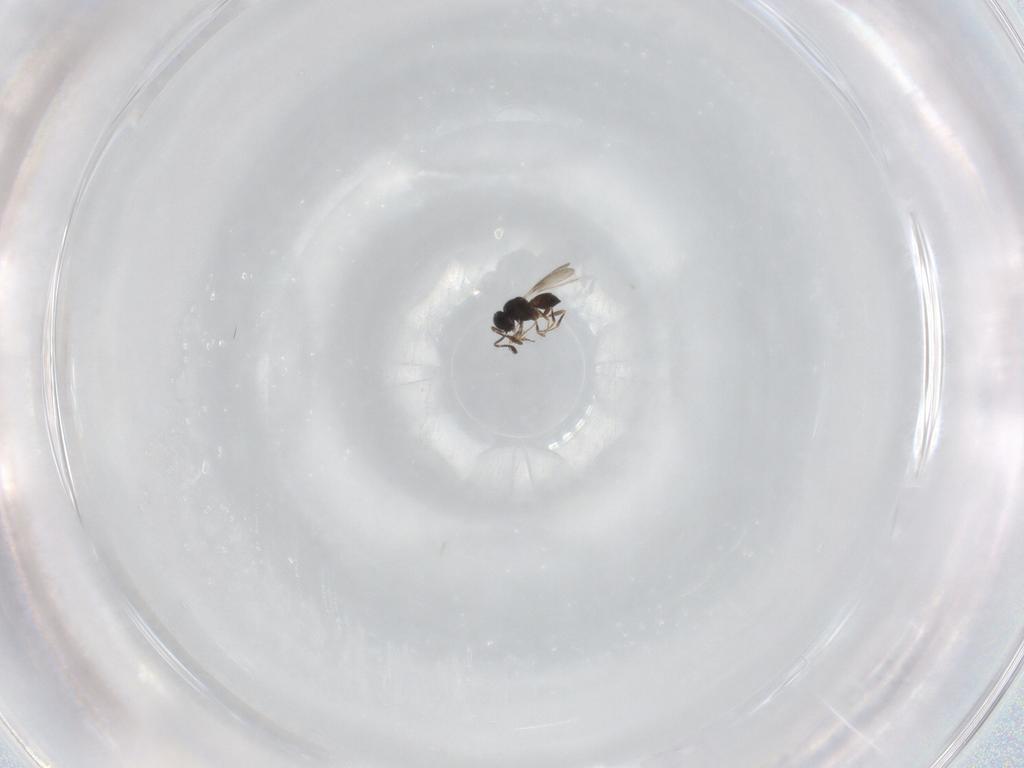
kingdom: Animalia
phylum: Arthropoda
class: Insecta
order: Hymenoptera
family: Scelionidae
